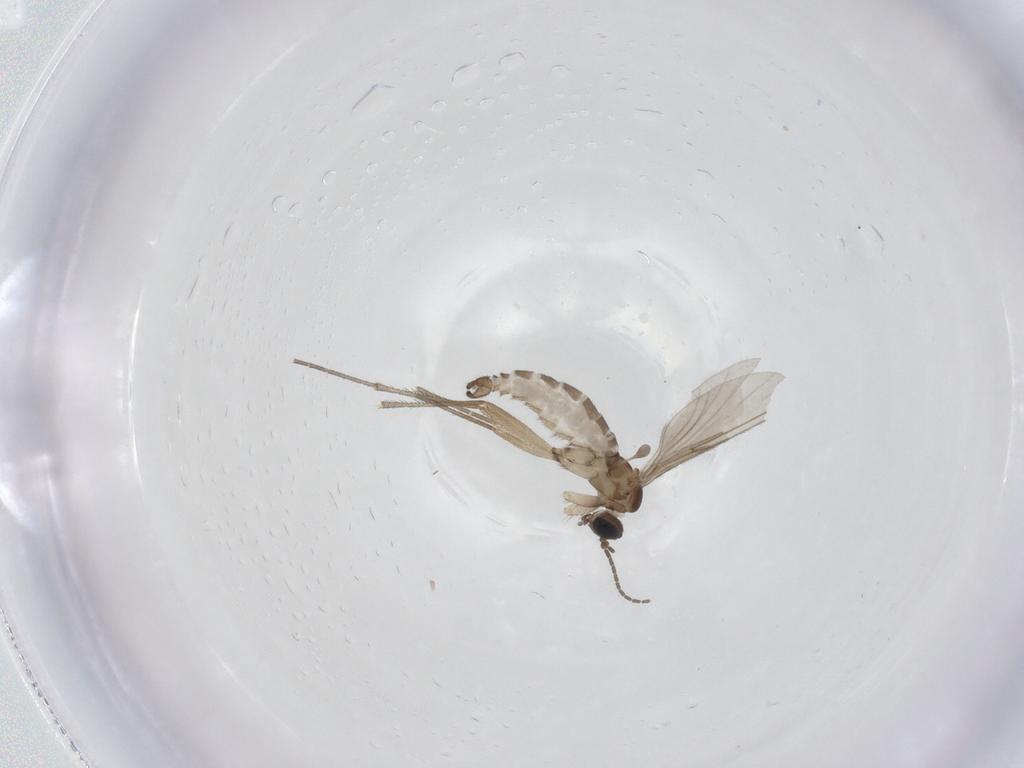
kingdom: Animalia
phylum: Arthropoda
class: Insecta
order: Diptera
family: Sciaridae
